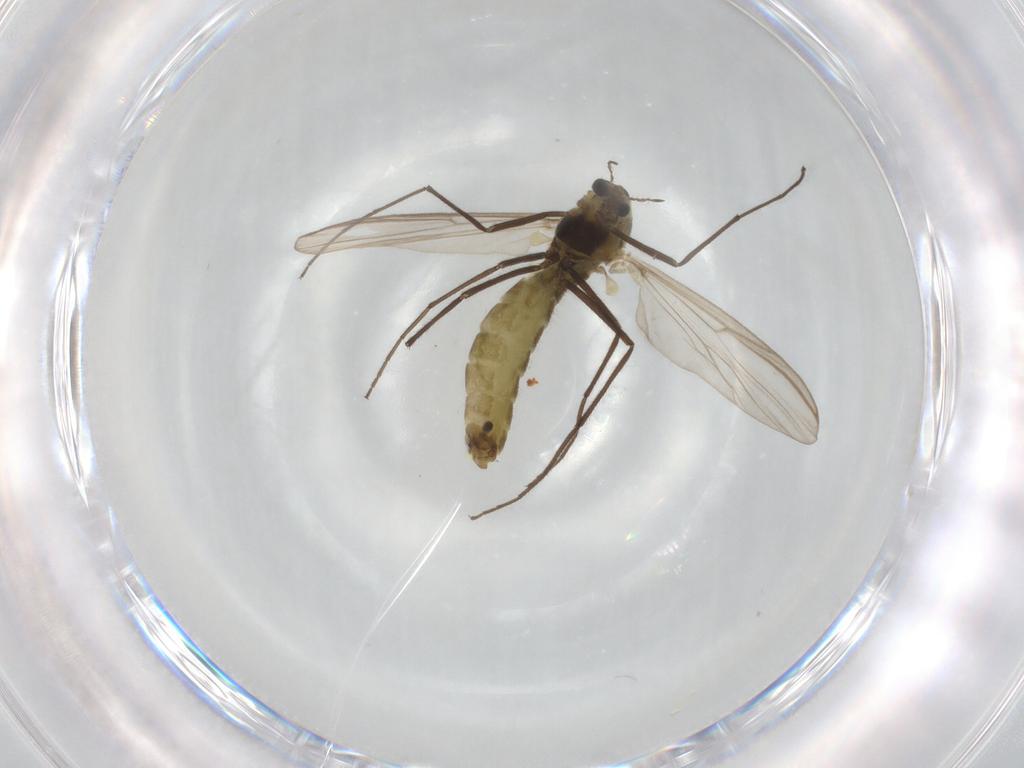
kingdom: Animalia
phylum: Arthropoda
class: Insecta
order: Diptera
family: Chironomidae
